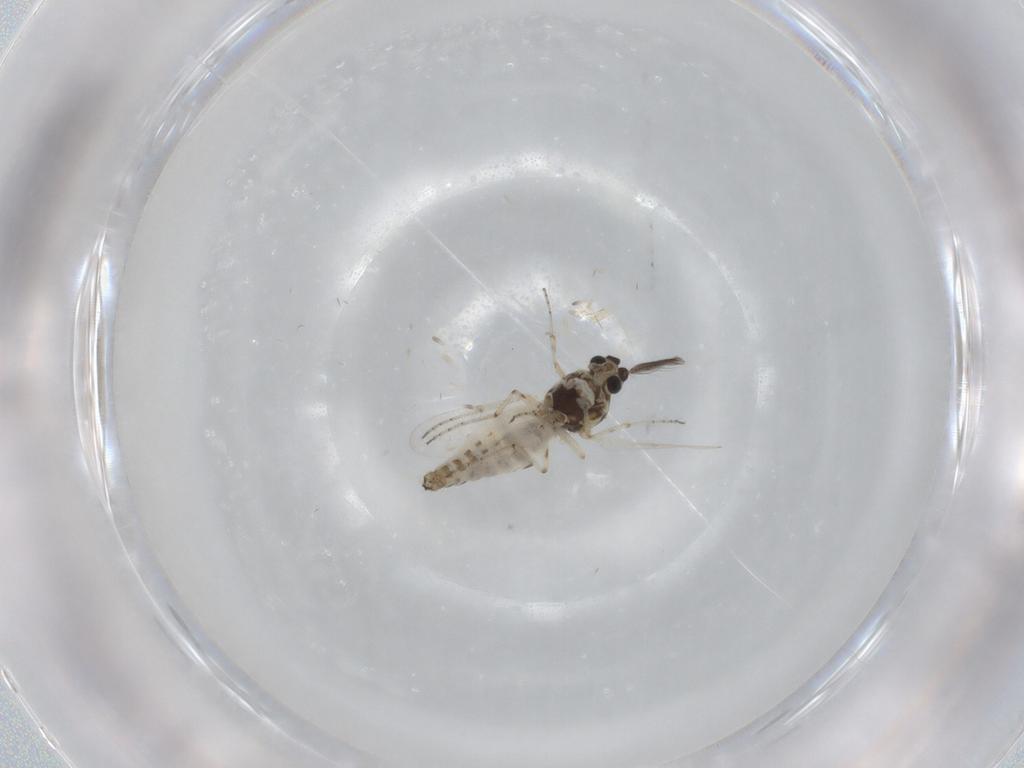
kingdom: Animalia
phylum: Arthropoda
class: Insecta
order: Diptera
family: Ceratopogonidae
